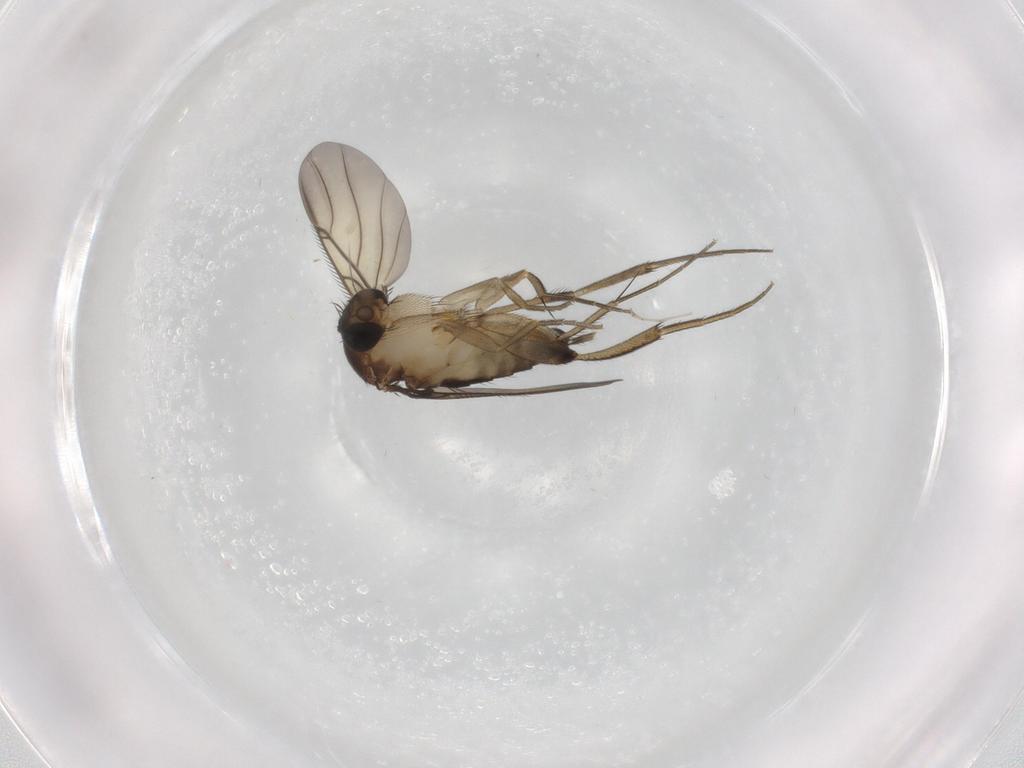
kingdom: Animalia
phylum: Arthropoda
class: Insecta
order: Diptera
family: Phoridae
